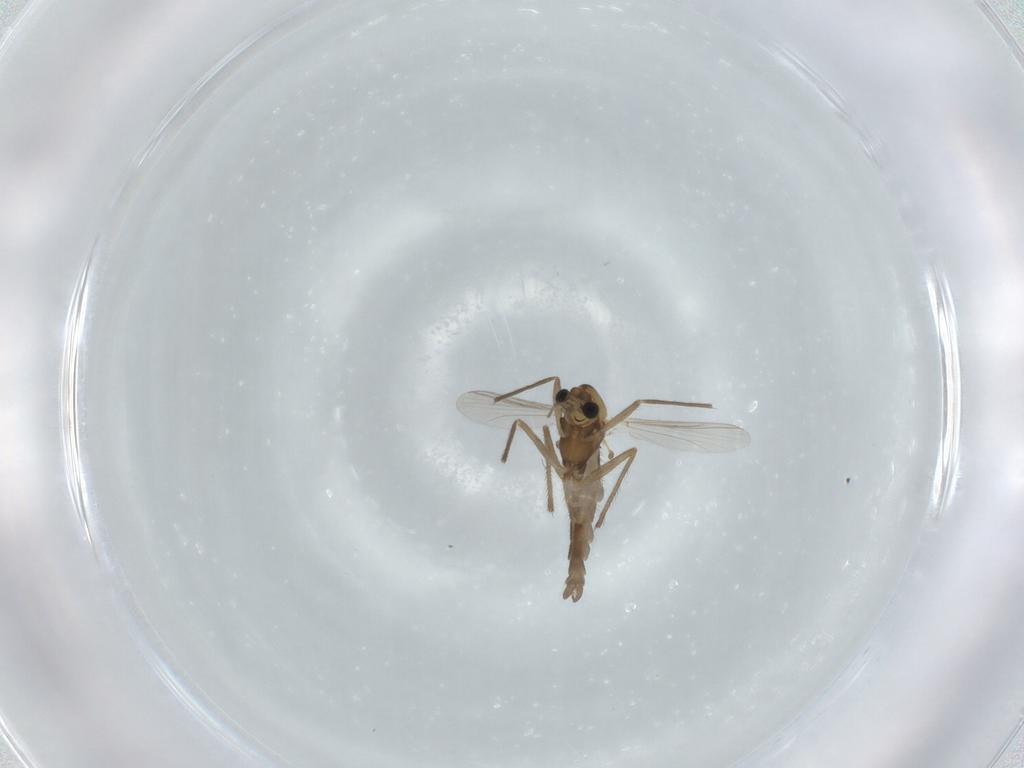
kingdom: Animalia
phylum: Arthropoda
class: Insecta
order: Diptera
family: Chironomidae
